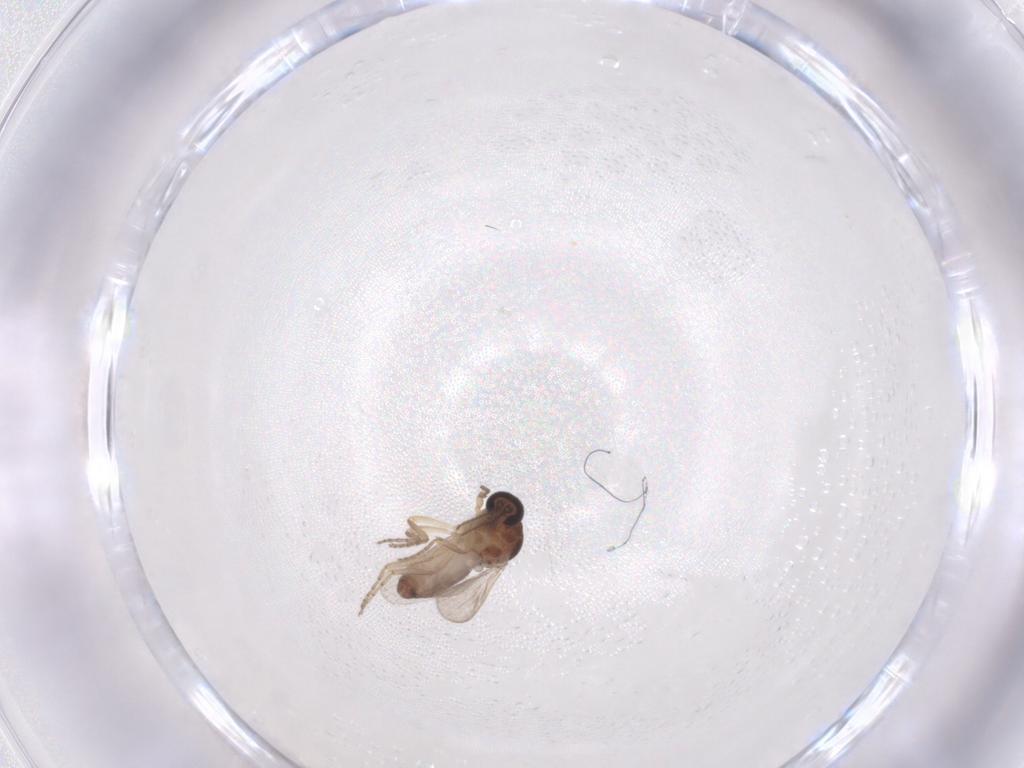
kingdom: Animalia
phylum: Arthropoda
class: Insecta
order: Diptera
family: Ceratopogonidae
